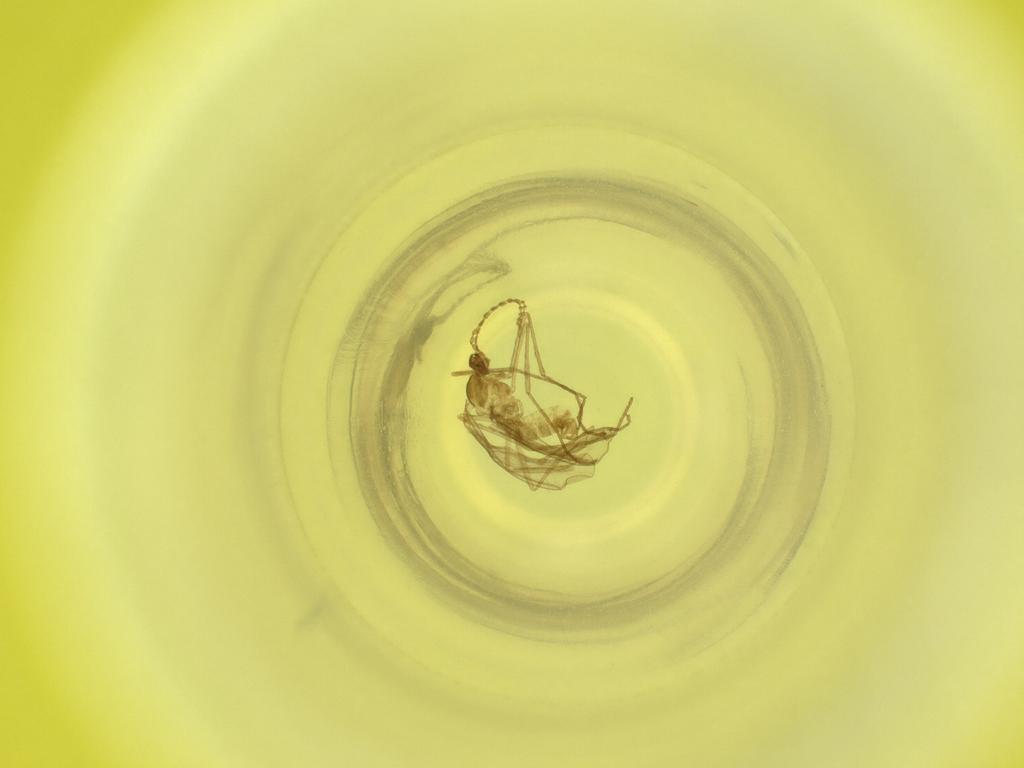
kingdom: Animalia
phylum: Arthropoda
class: Insecta
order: Diptera
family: Cecidomyiidae
